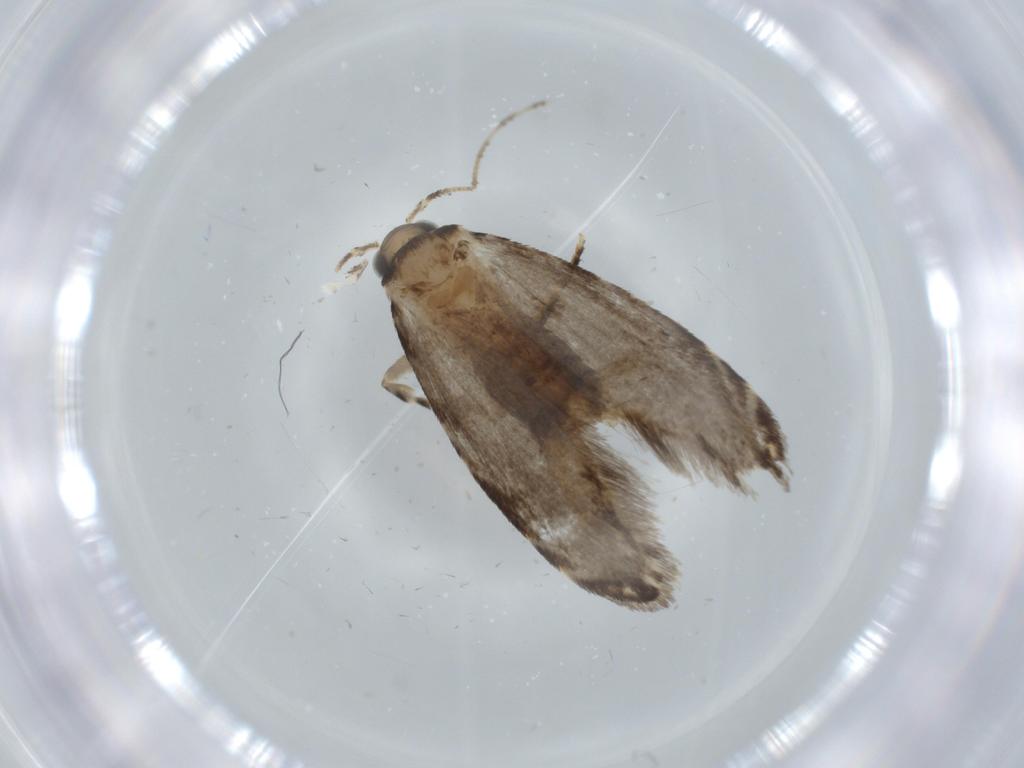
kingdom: Animalia
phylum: Arthropoda
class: Insecta
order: Lepidoptera
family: Tineidae
